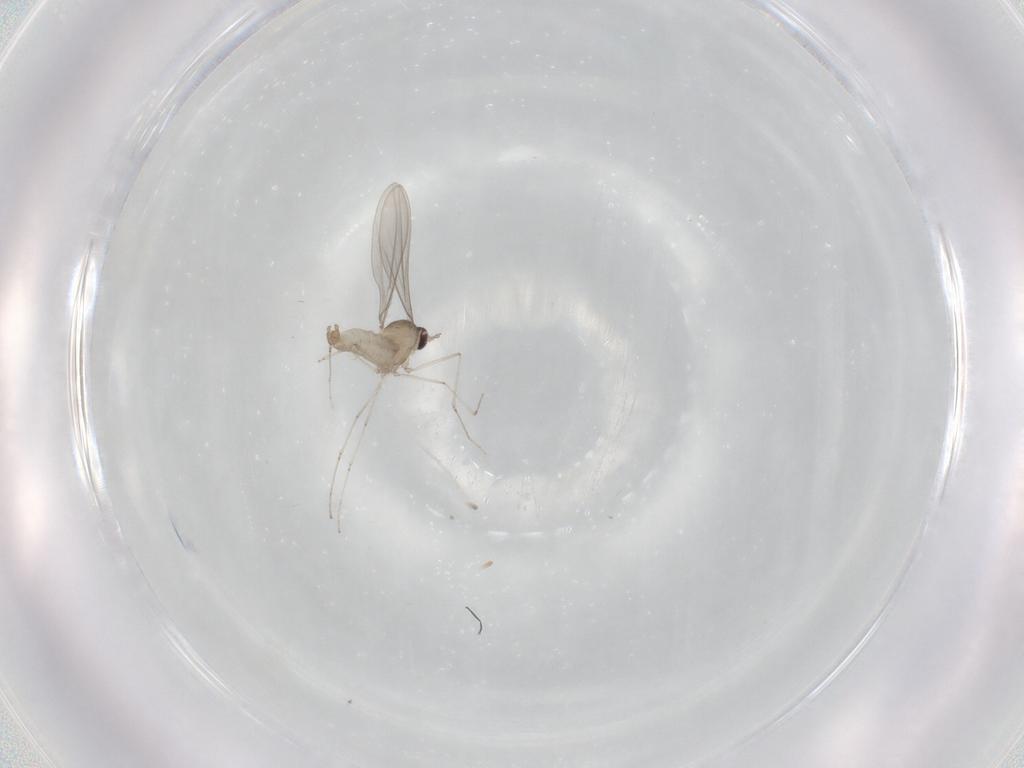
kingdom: Animalia
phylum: Arthropoda
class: Insecta
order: Diptera
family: Cecidomyiidae
